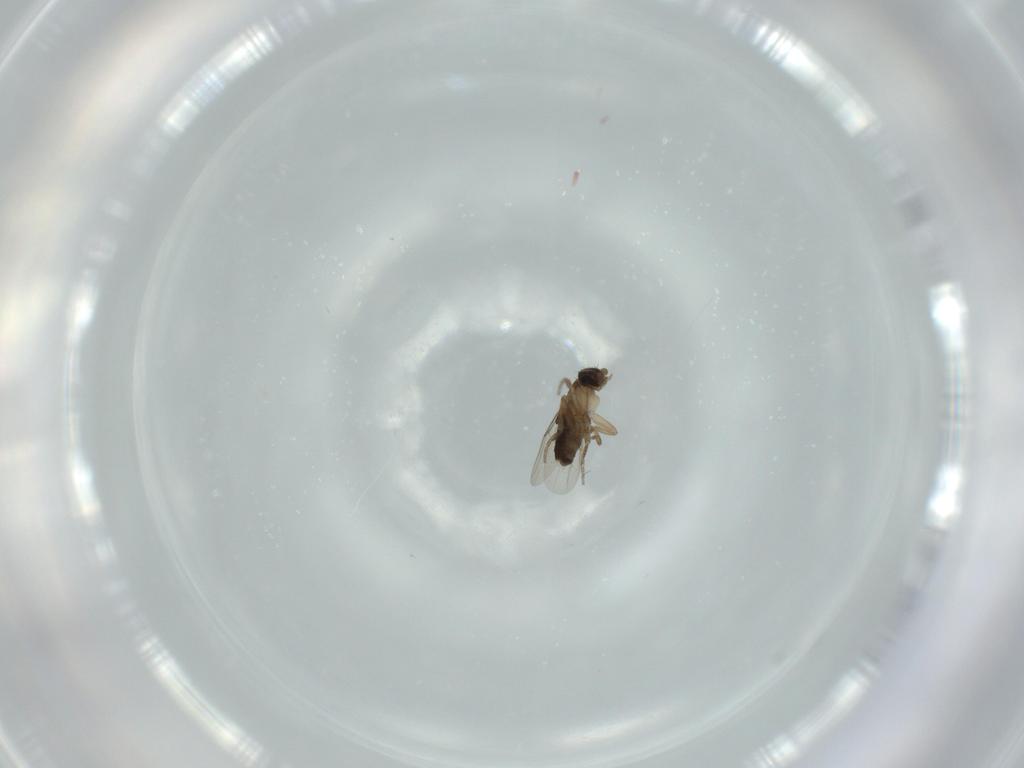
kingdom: Animalia
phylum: Arthropoda
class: Insecta
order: Diptera
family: Phoridae
